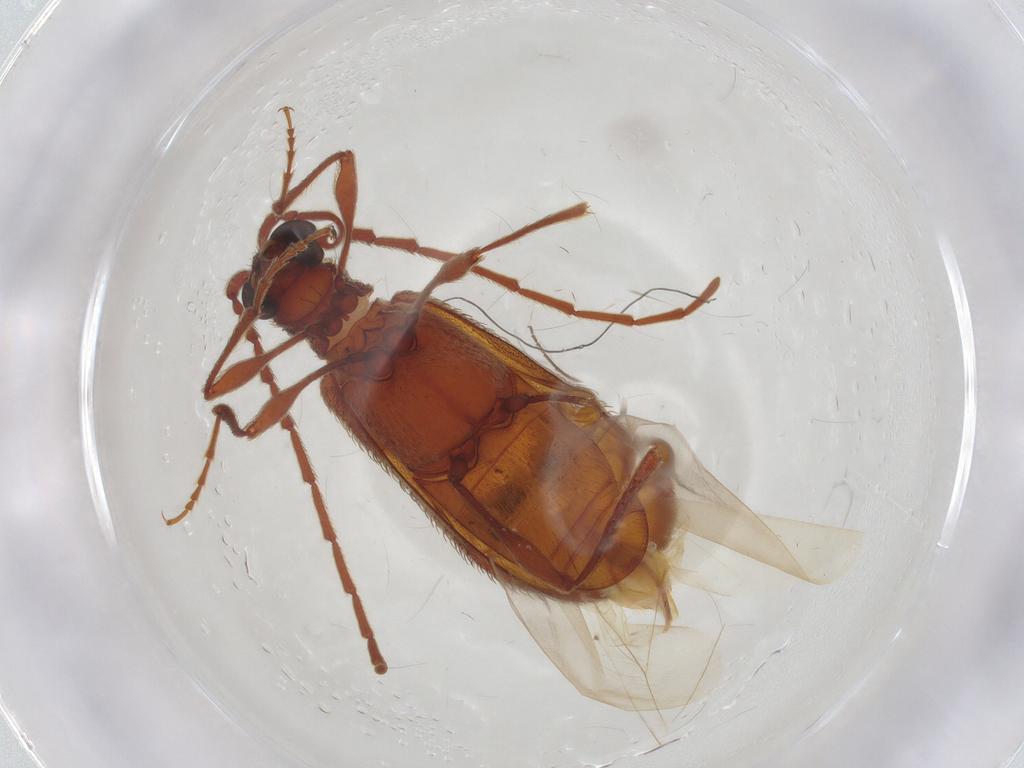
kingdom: Animalia
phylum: Arthropoda
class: Insecta
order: Coleoptera
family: Ptinidae
